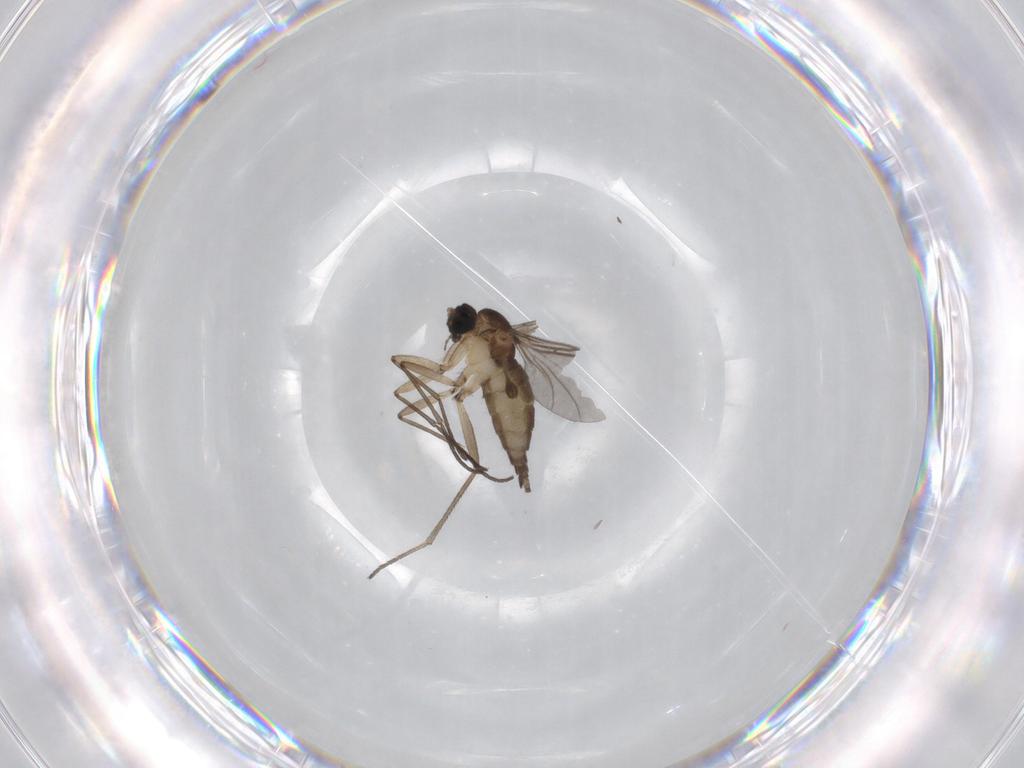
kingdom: Animalia
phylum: Arthropoda
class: Insecta
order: Diptera
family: Sciaridae
